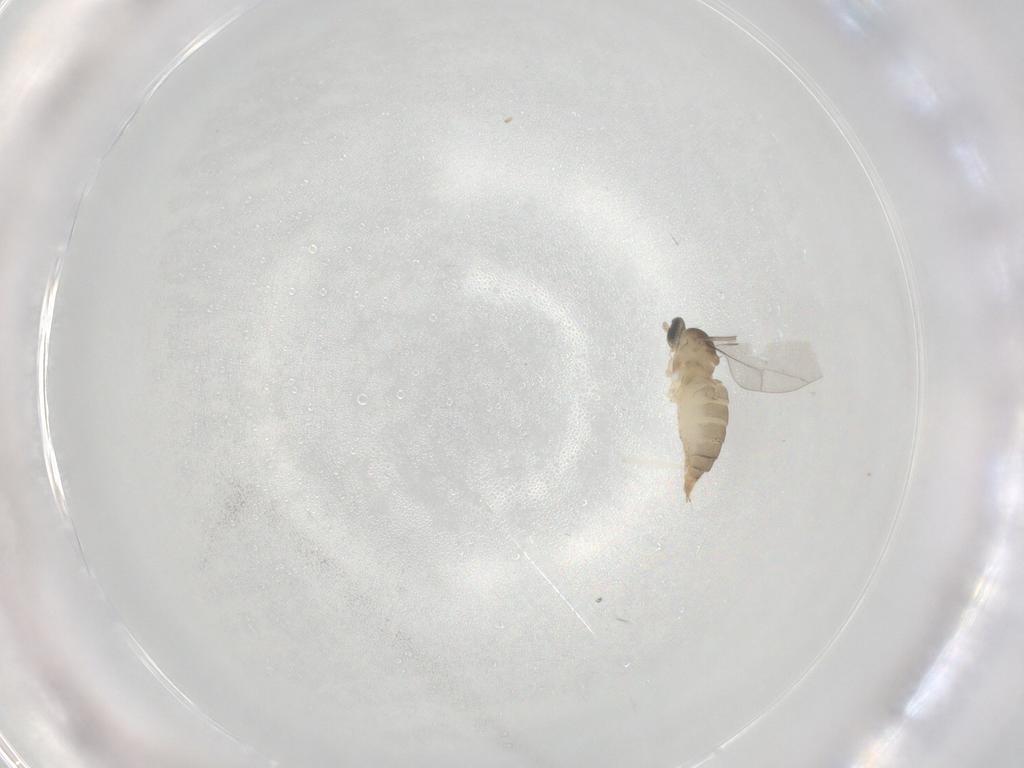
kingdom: Animalia
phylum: Arthropoda
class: Insecta
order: Diptera
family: Cecidomyiidae
